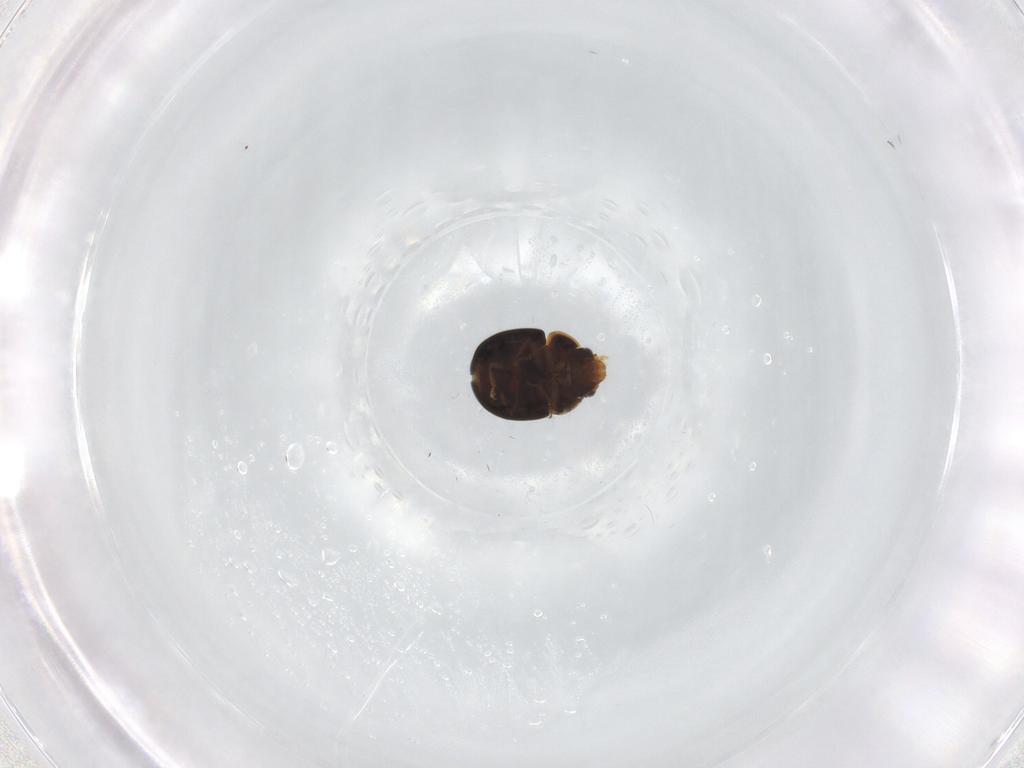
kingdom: Animalia
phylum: Arthropoda
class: Insecta
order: Coleoptera
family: Leiodidae
